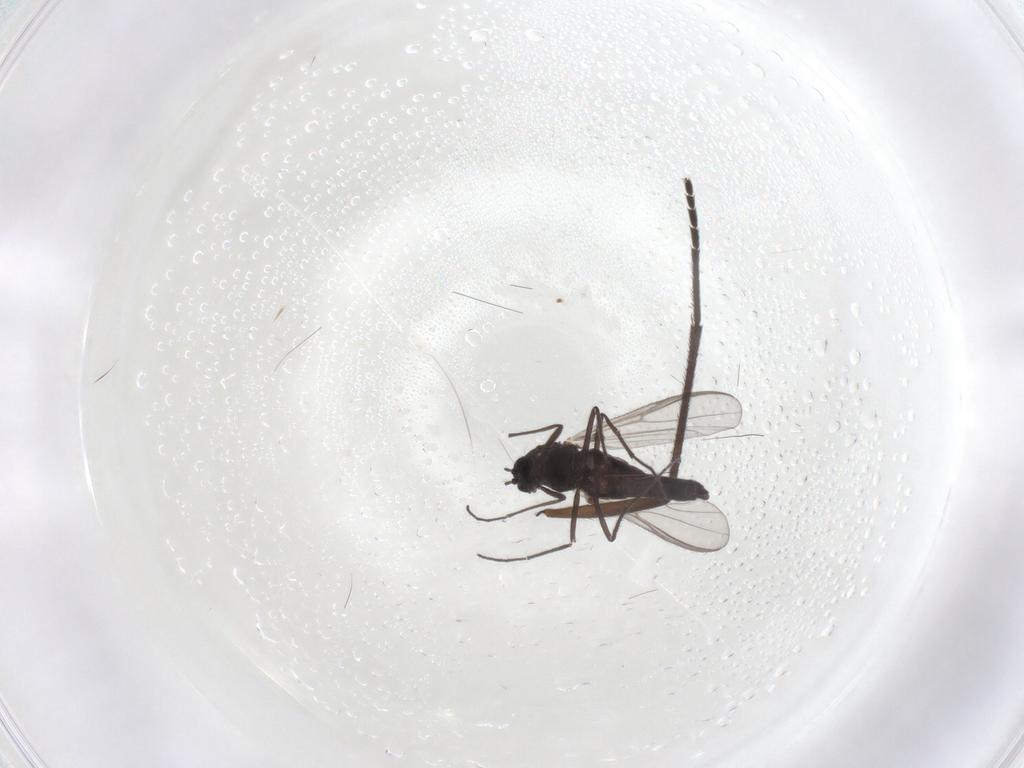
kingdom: Animalia
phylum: Arthropoda
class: Insecta
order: Diptera
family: Chironomidae
